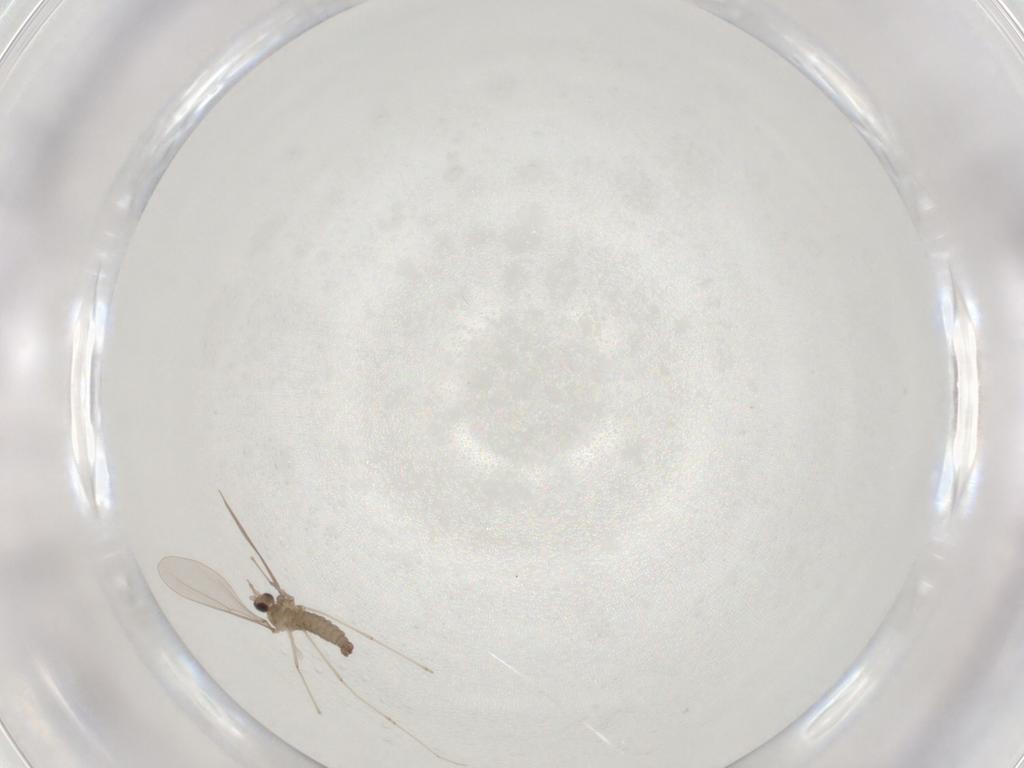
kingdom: Animalia
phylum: Arthropoda
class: Insecta
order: Diptera
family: Cecidomyiidae
